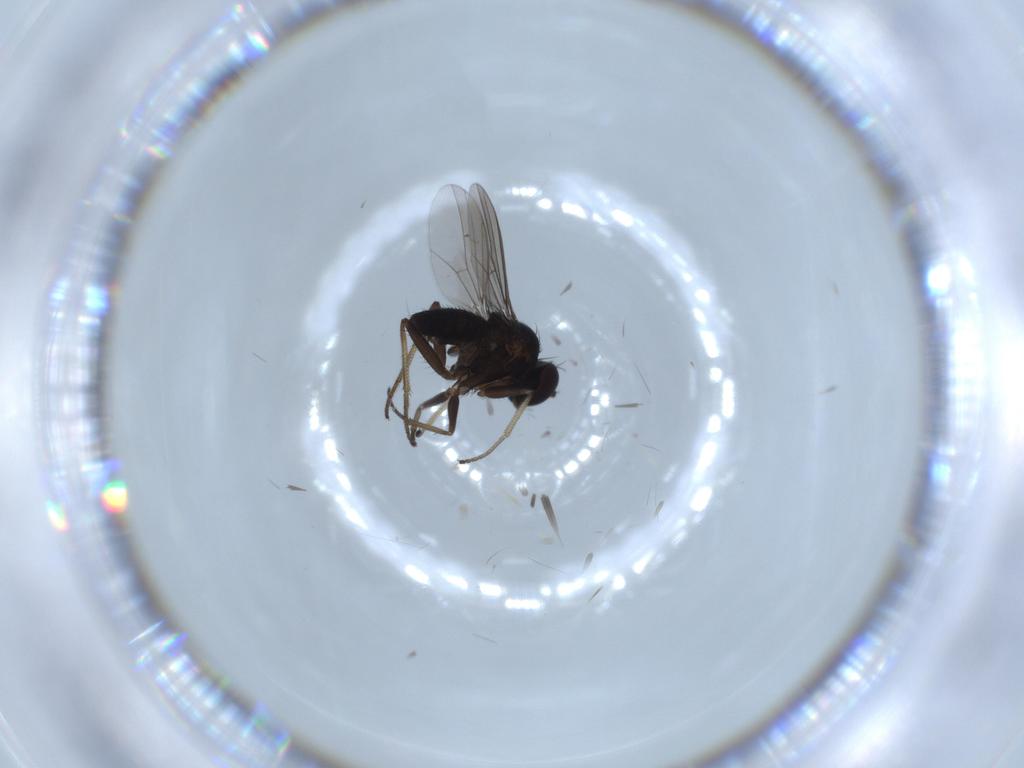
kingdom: Animalia
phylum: Arthropoda
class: Insecta
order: Diptera
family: Dolichopodidae
